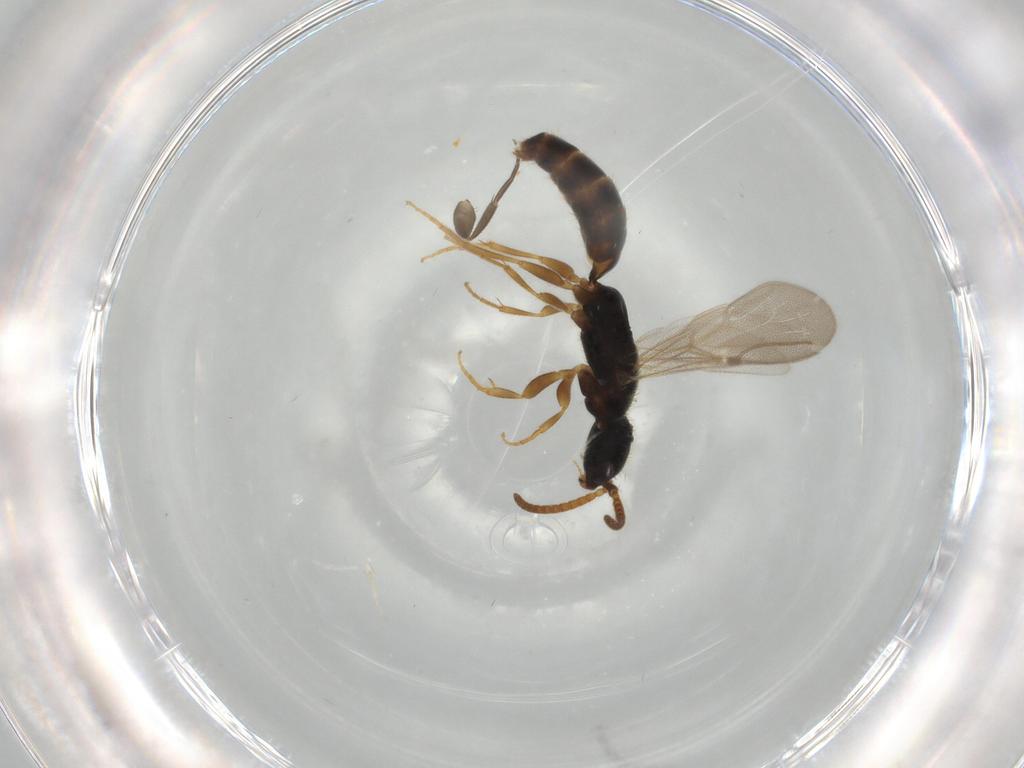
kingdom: Animalia
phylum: Arthropoda
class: Insecta
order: Hymenoptera
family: Bethylidae
